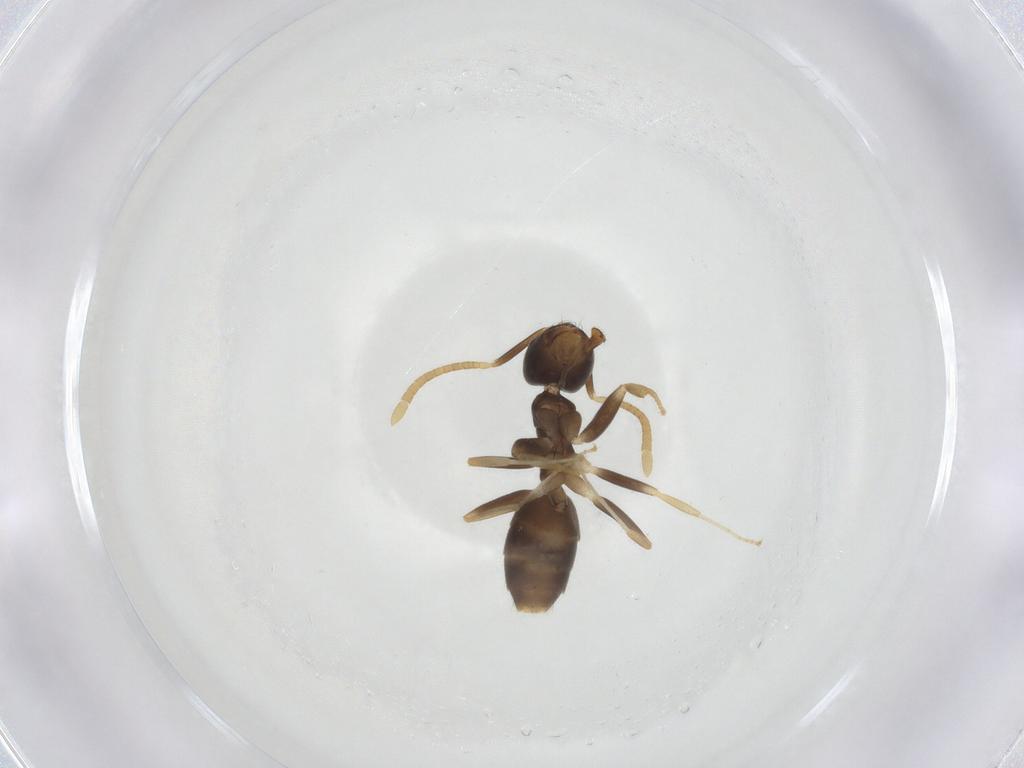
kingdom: Animalia
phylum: Arthropoda
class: Insecta
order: Hymenoptera
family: Formicidae
